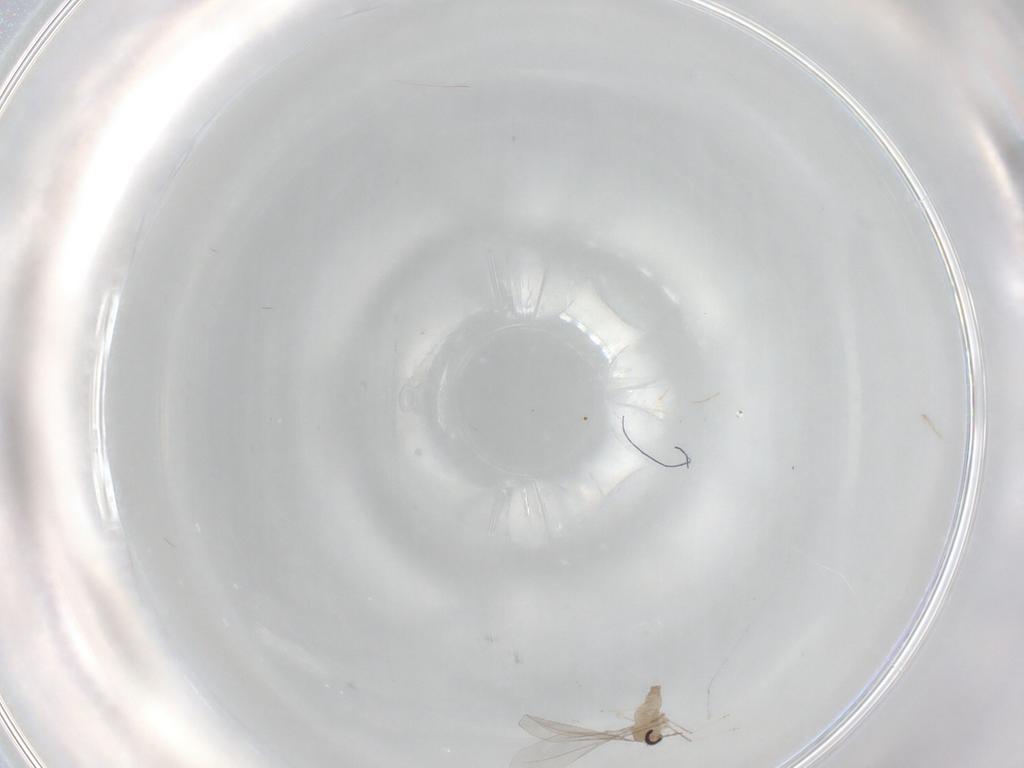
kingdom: Animalia
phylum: Arthropoda
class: Insecta
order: Diptera
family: Cecidomyiidae
